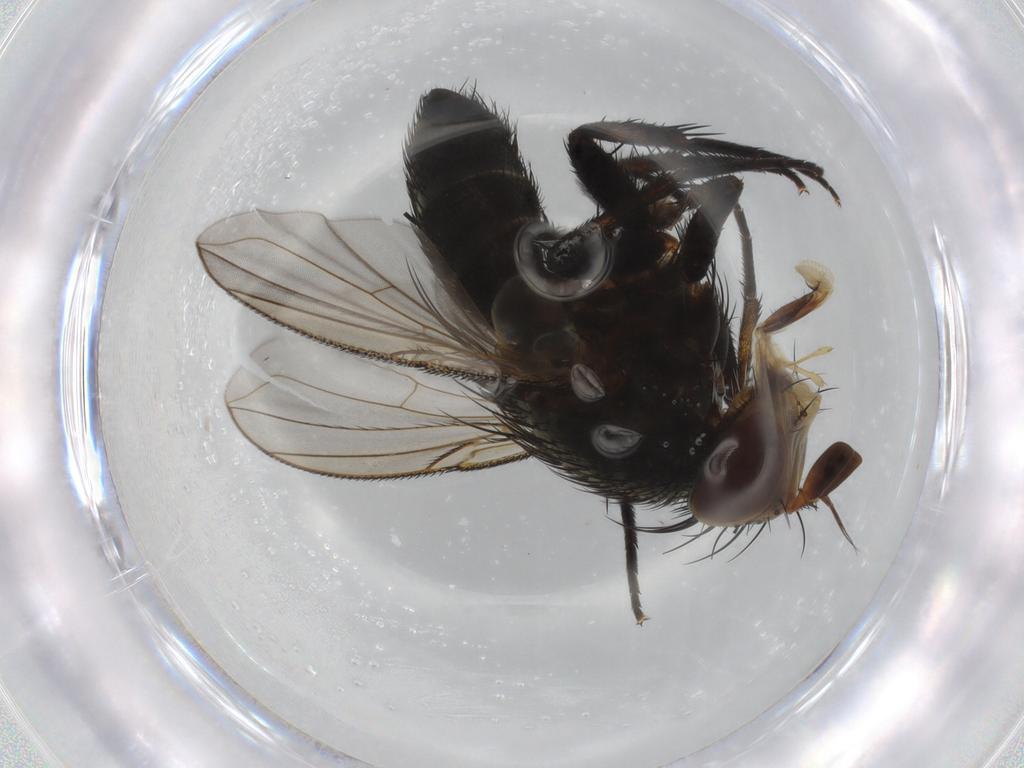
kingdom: Animalia
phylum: Arthropoda
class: Insecta
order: Diptera
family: Tachinidae
